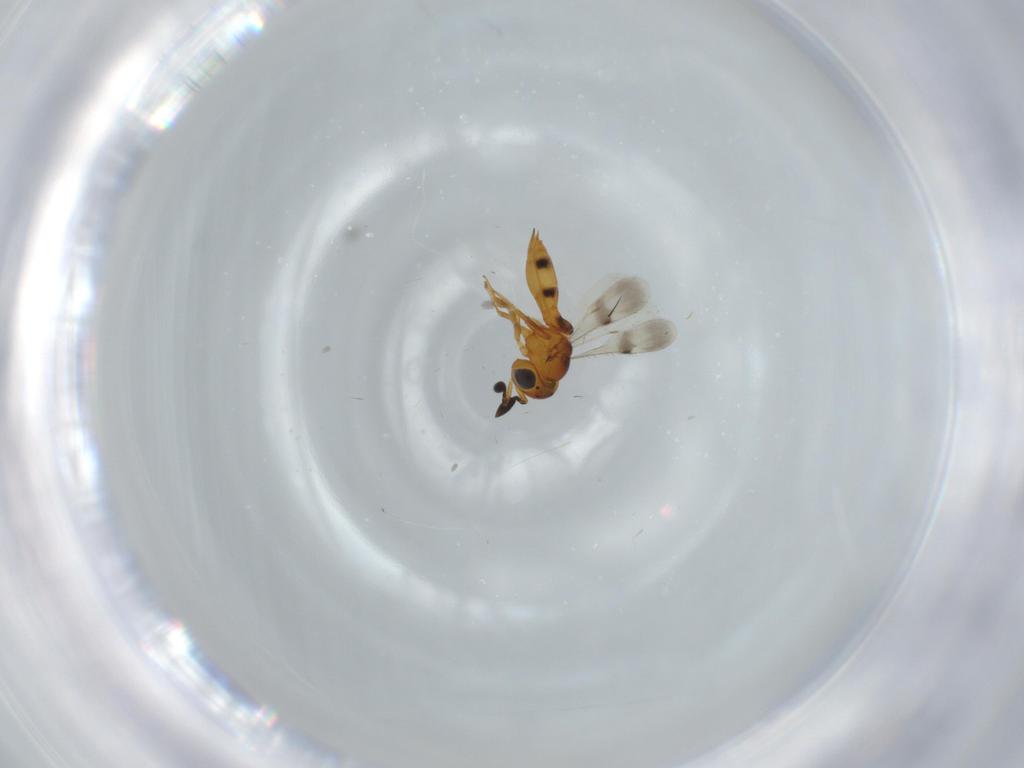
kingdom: Animalia
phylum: Arthropoda
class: Insecta
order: Hymenoptera
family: Scelionidae
